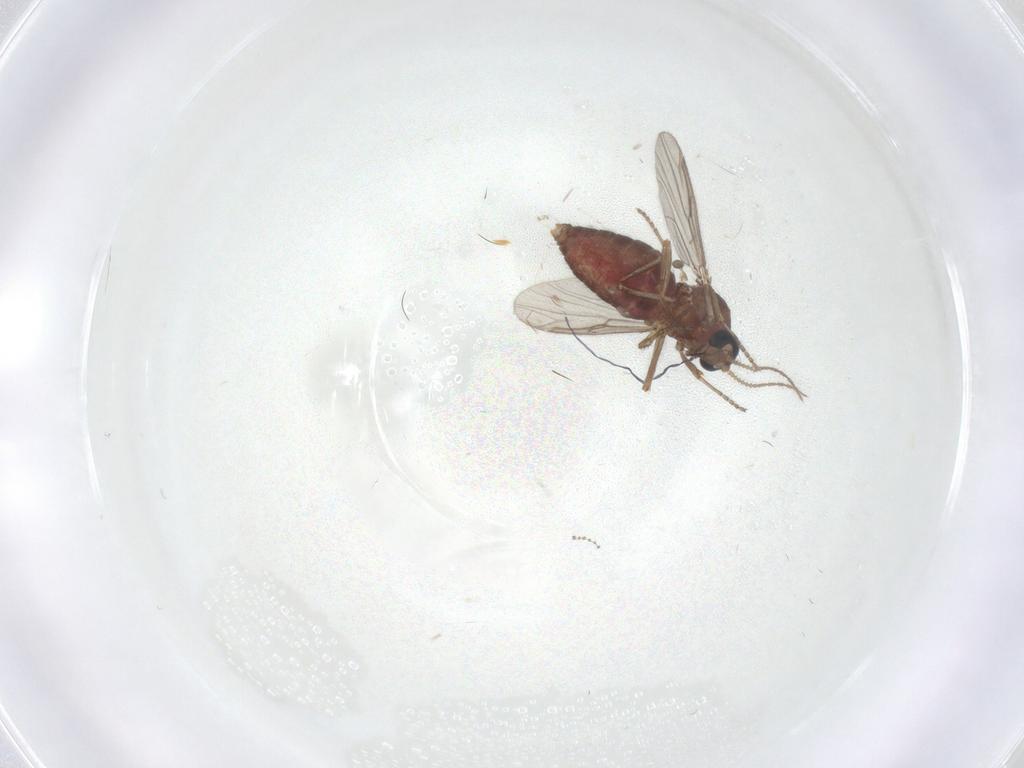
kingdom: Animalia
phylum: Arthropoda
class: Insecta
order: Diptera
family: Ceratopogonidae
